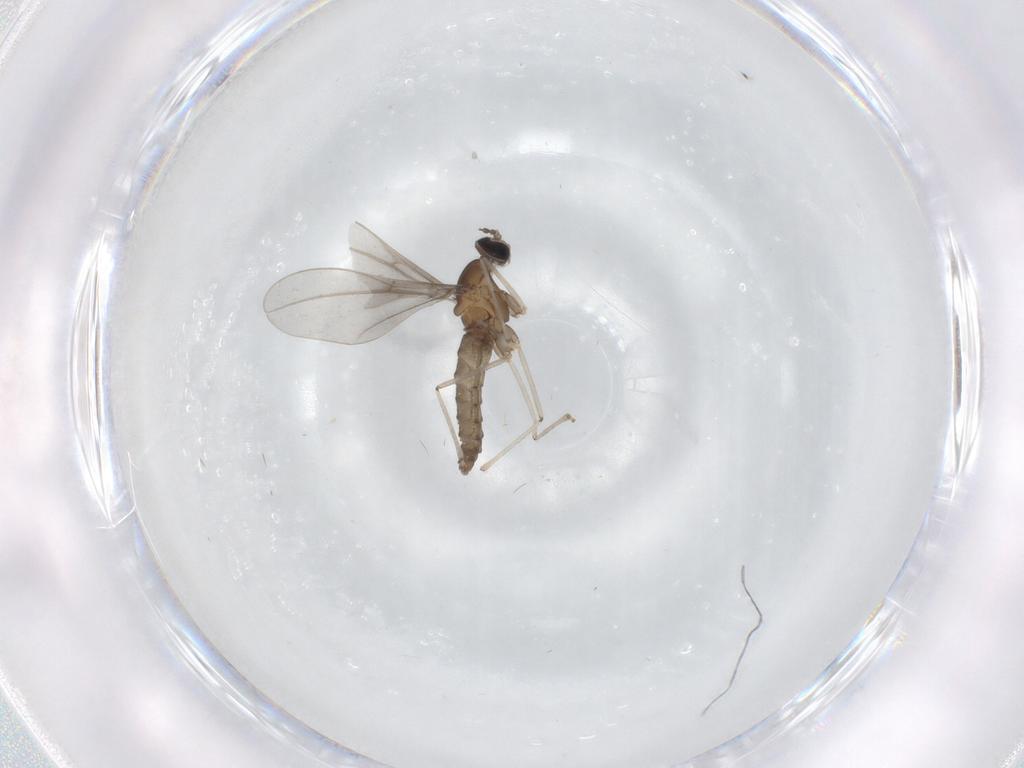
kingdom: Animalia
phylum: Arthropoda
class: Insecta
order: Diptera
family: Cecidomyiidae
